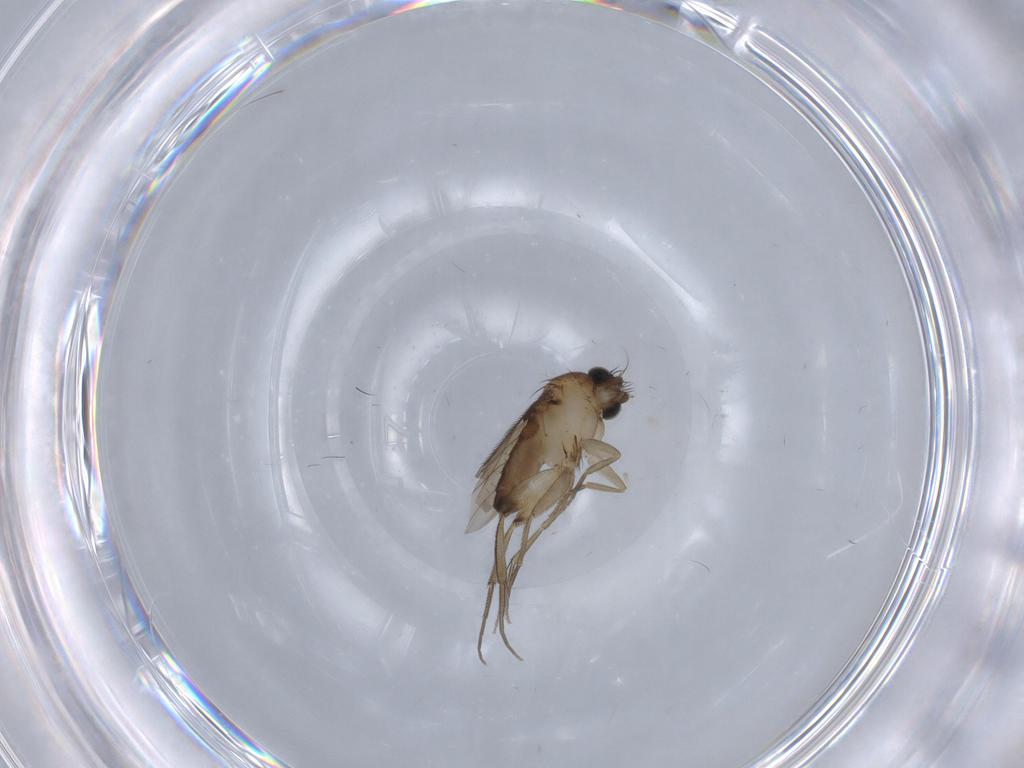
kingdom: Animalia
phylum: Arthropoda
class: Insecta
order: Diptera
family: Phoridae
